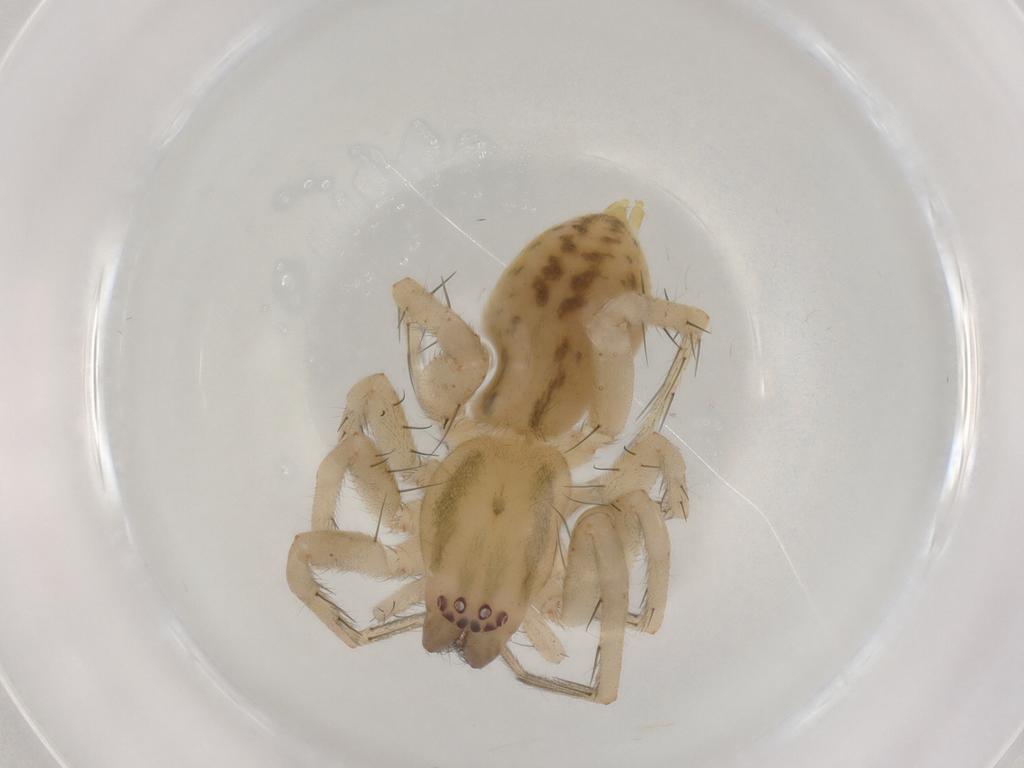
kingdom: Animalia
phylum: Arthropoda
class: Arachnida
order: Araneae
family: Anyphaenidae
